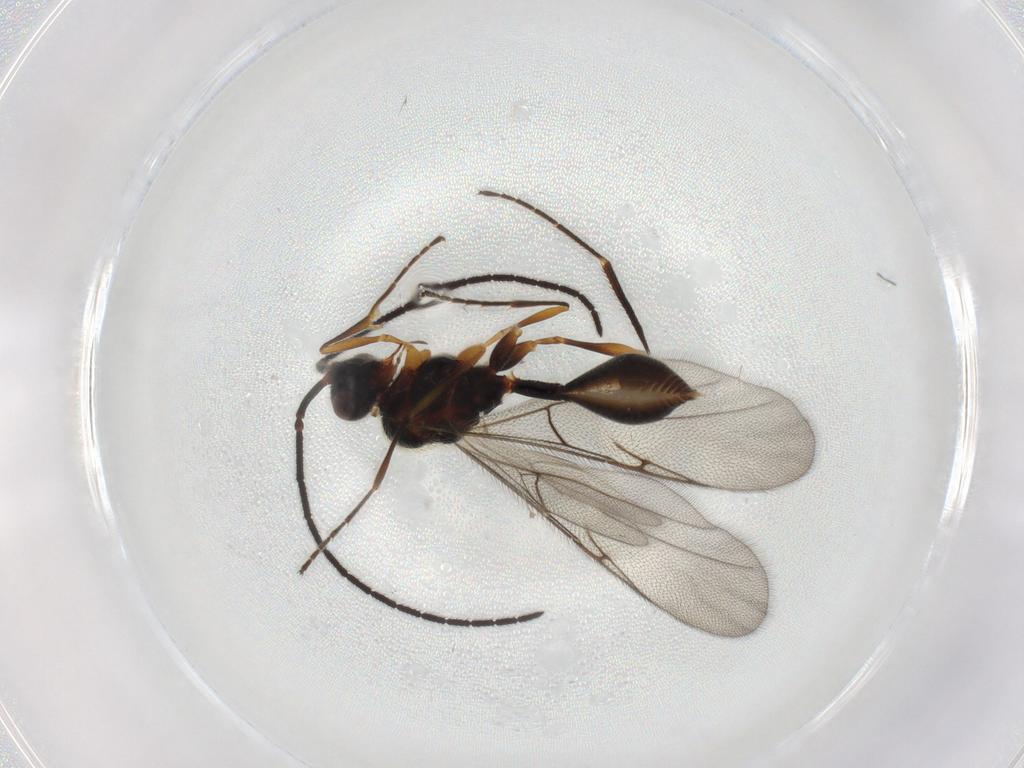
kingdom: Animalia
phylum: Arthropoda
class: Insecta
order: Hymenoptera
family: Diapriidae
